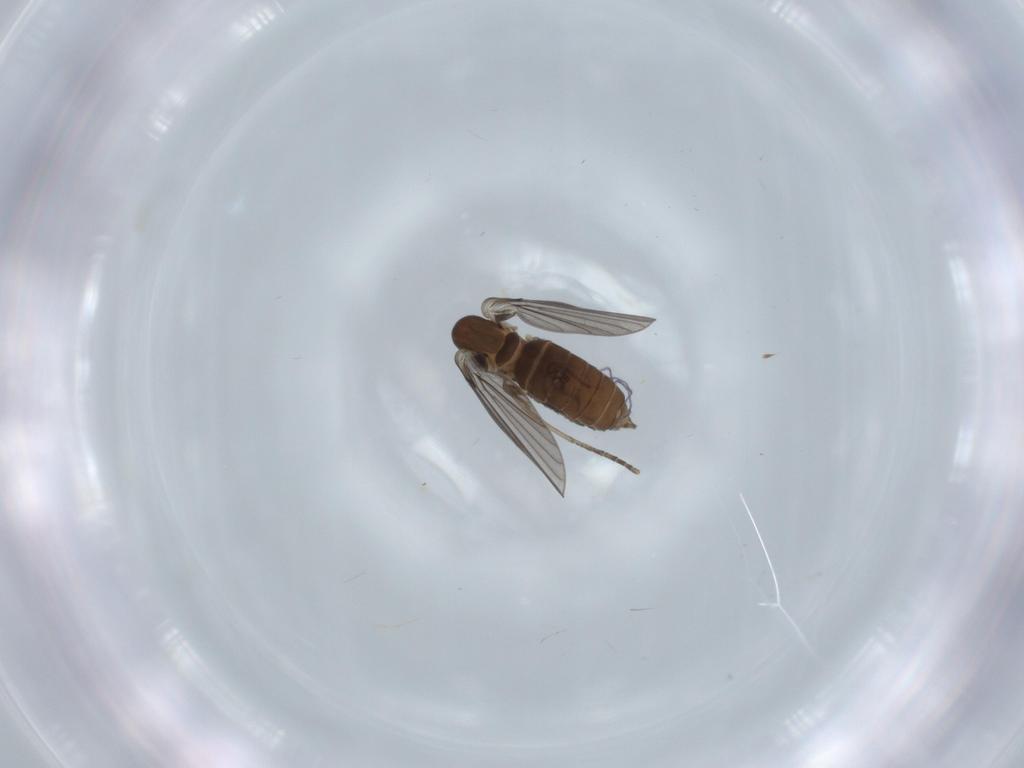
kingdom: Animalia
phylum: Arthropoda
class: Insecta
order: Diptera
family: Psychodidae
